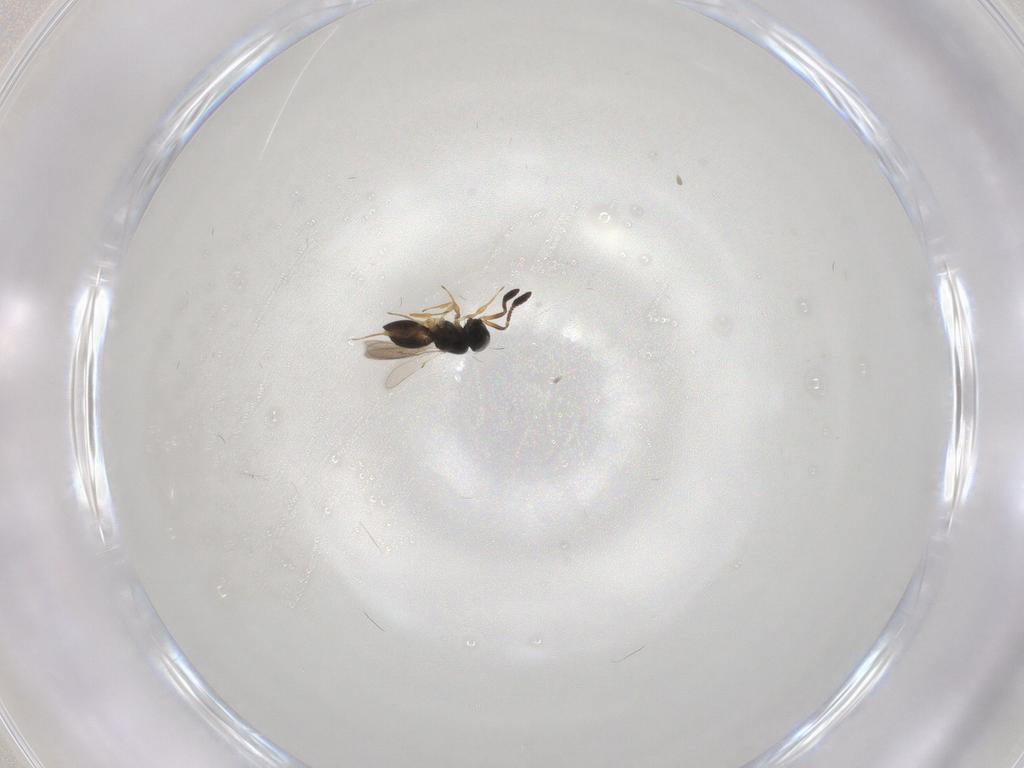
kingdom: Animalia
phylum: Arthropoda
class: Insecta
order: Hymenoptera
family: Scelionidae
